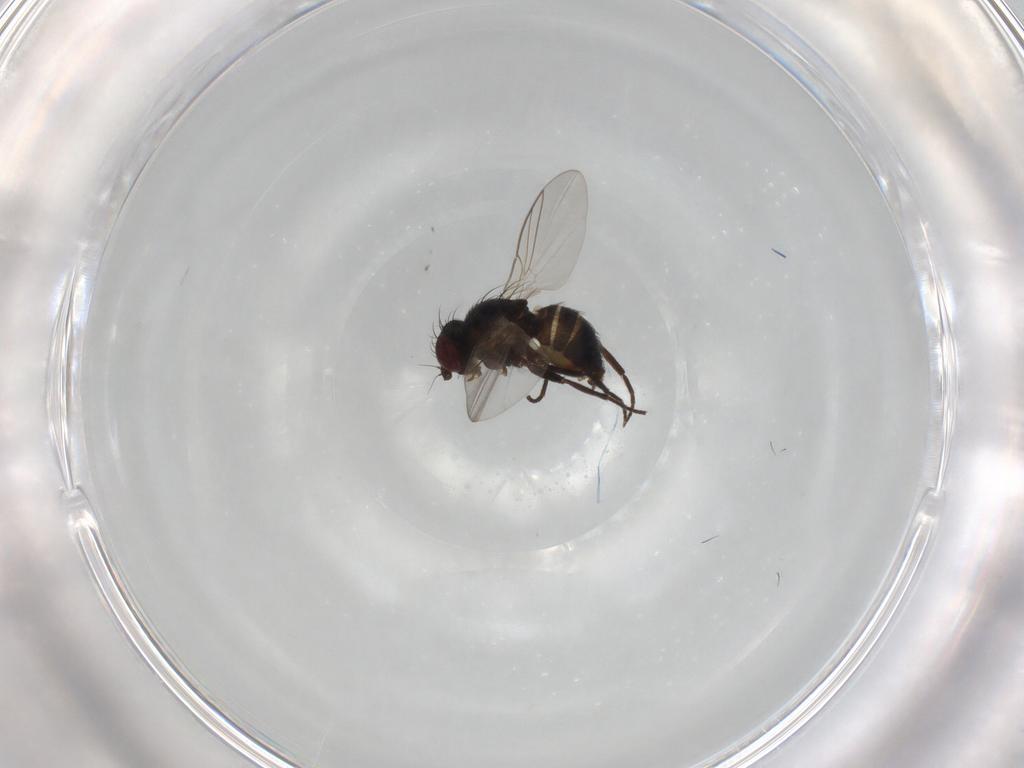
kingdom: Animalia
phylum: Arthropoda
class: Insecta
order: Diptera
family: Agromyzidae
